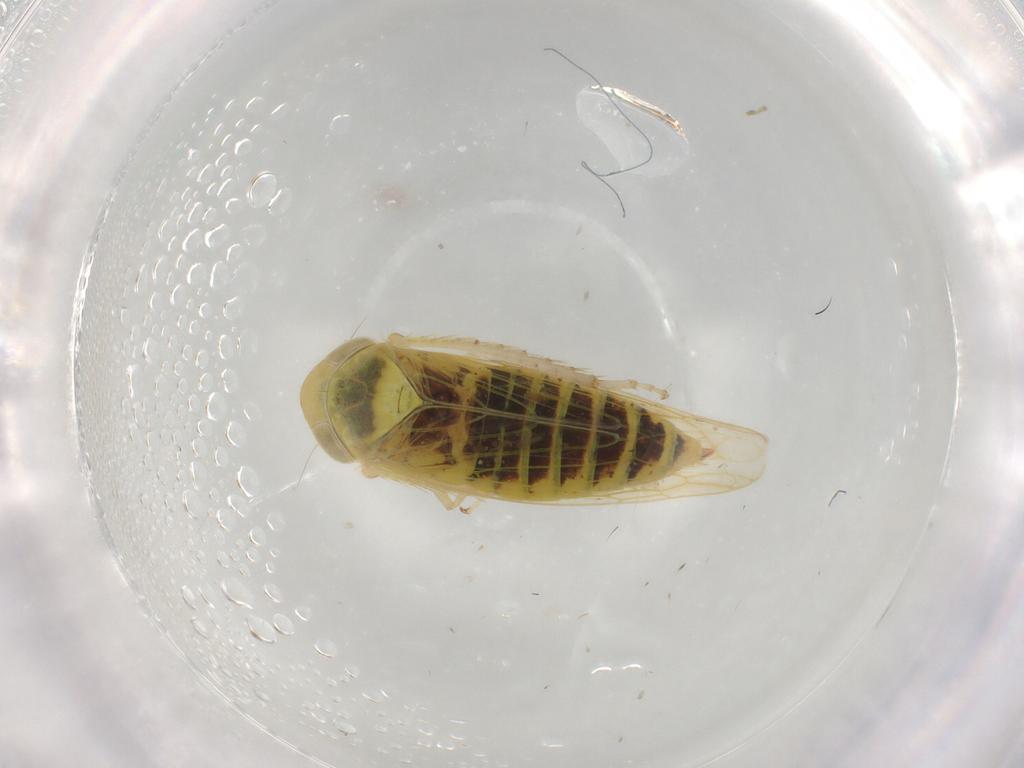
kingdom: Animalia
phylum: Arthropoda
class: Insecta
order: Hemiptera
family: Cicadellidae
